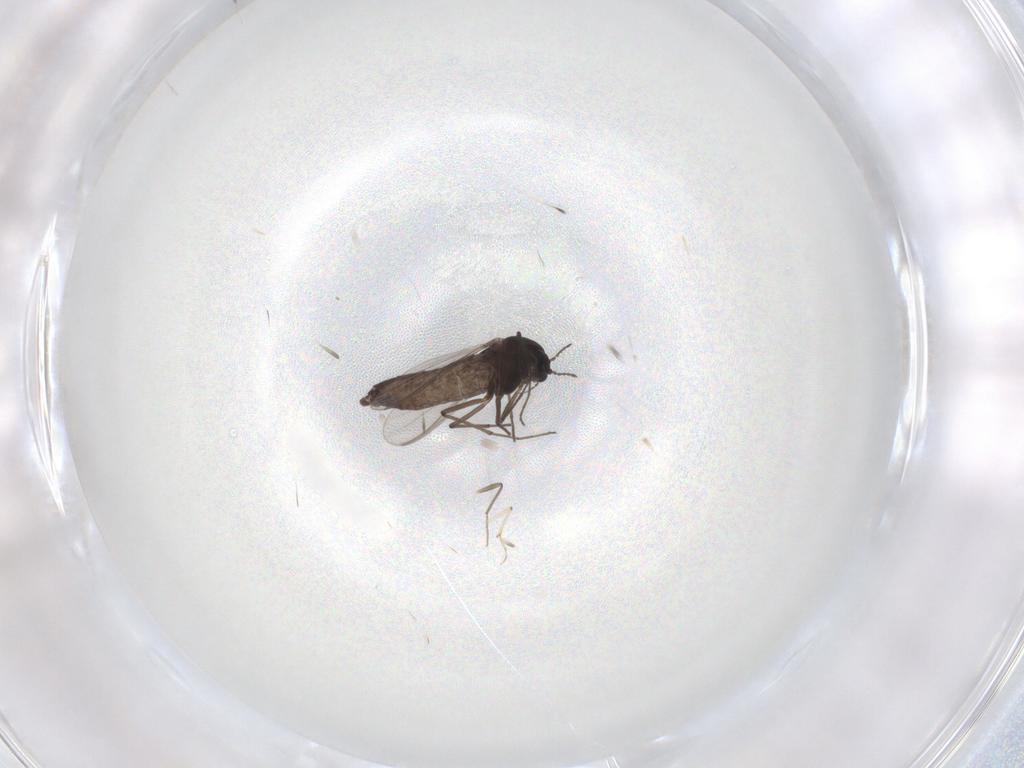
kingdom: Animalia
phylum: Arthropoda
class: Insecta
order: Diptera
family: Chironomidae
